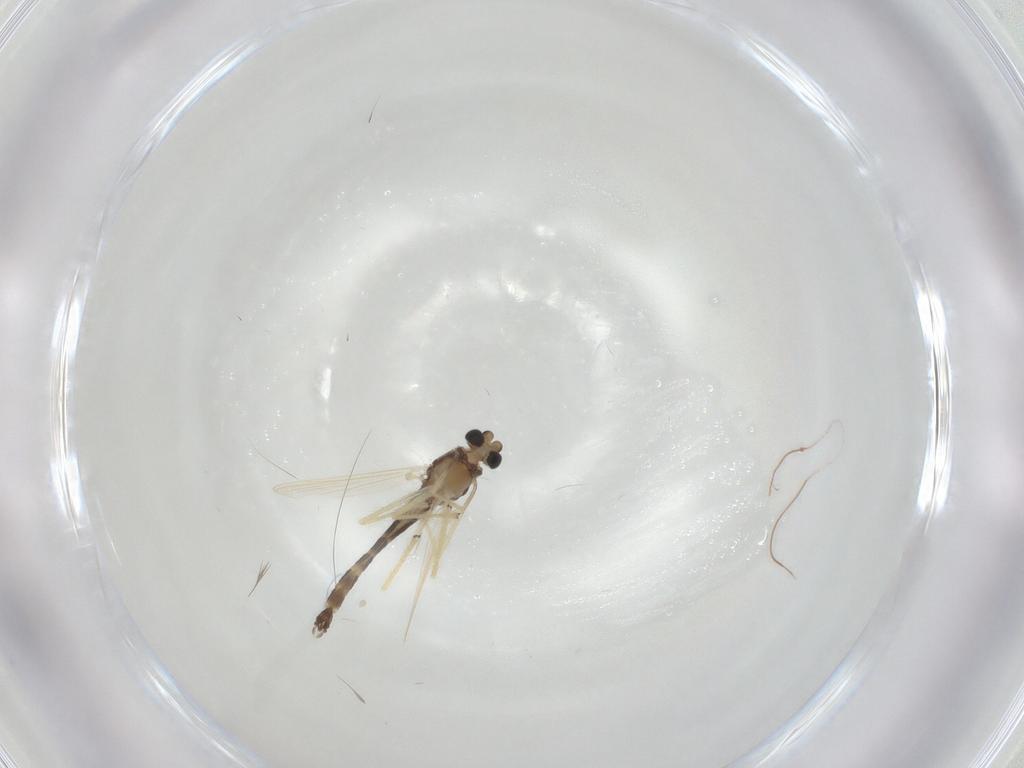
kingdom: Animalia
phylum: Arthropoda
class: Insecta
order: Diptera
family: Chironomidae
